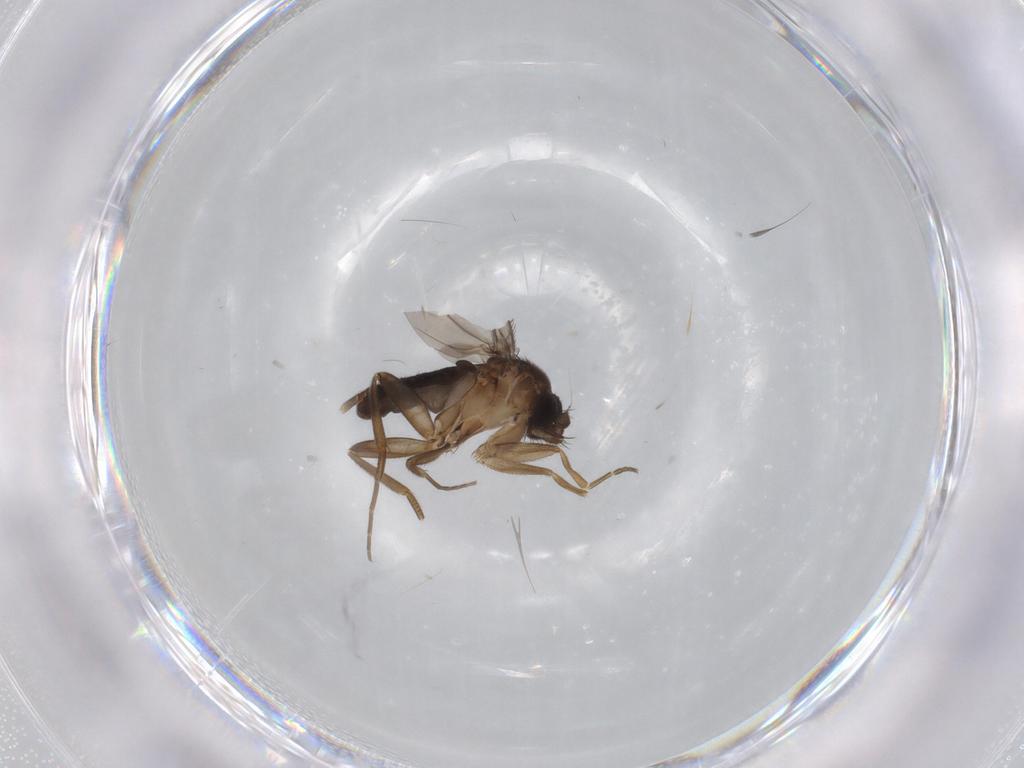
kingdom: Animalia
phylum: Arthropoda
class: Insecta
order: Diptera
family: Phoridae
